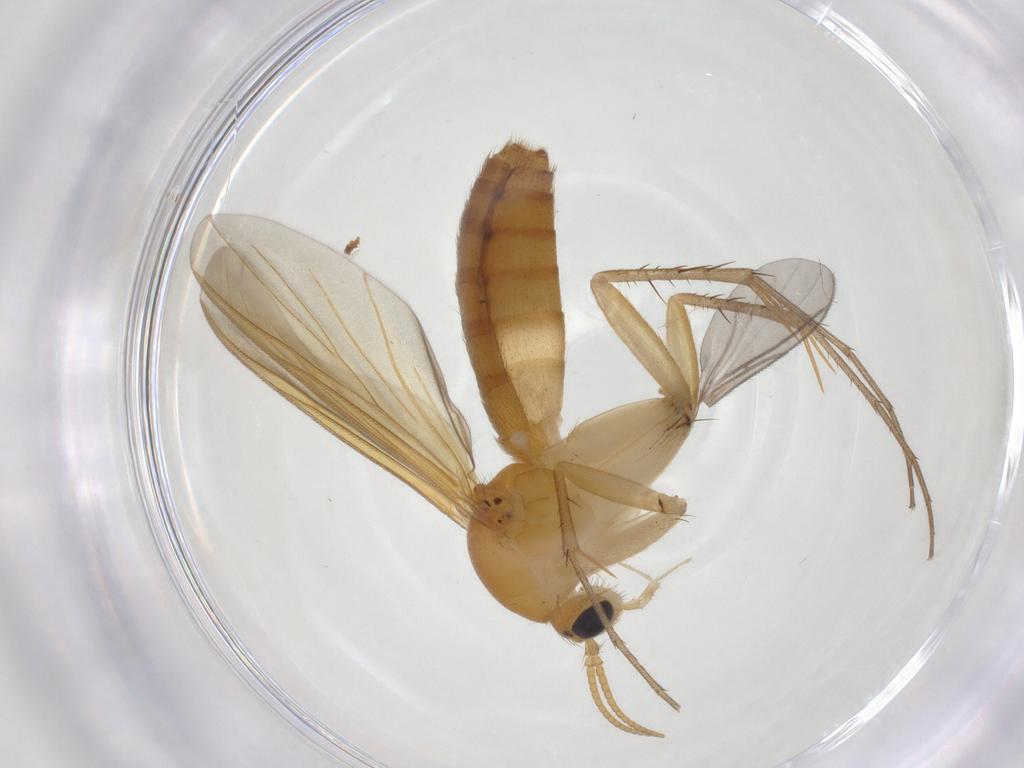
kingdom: Animalia
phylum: Arthropoda
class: Insecta
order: Diptera
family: Mycetophilidae
